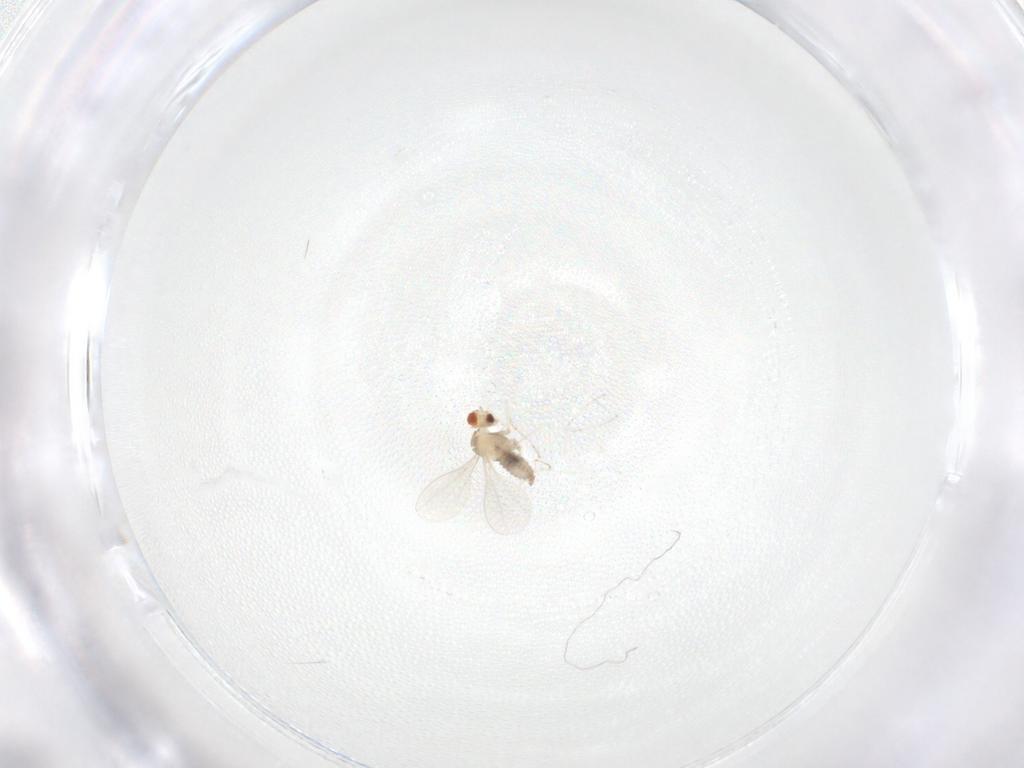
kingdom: Animalia
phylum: Arthropoda
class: Insecta
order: Diptera
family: Cecidomyiidae
